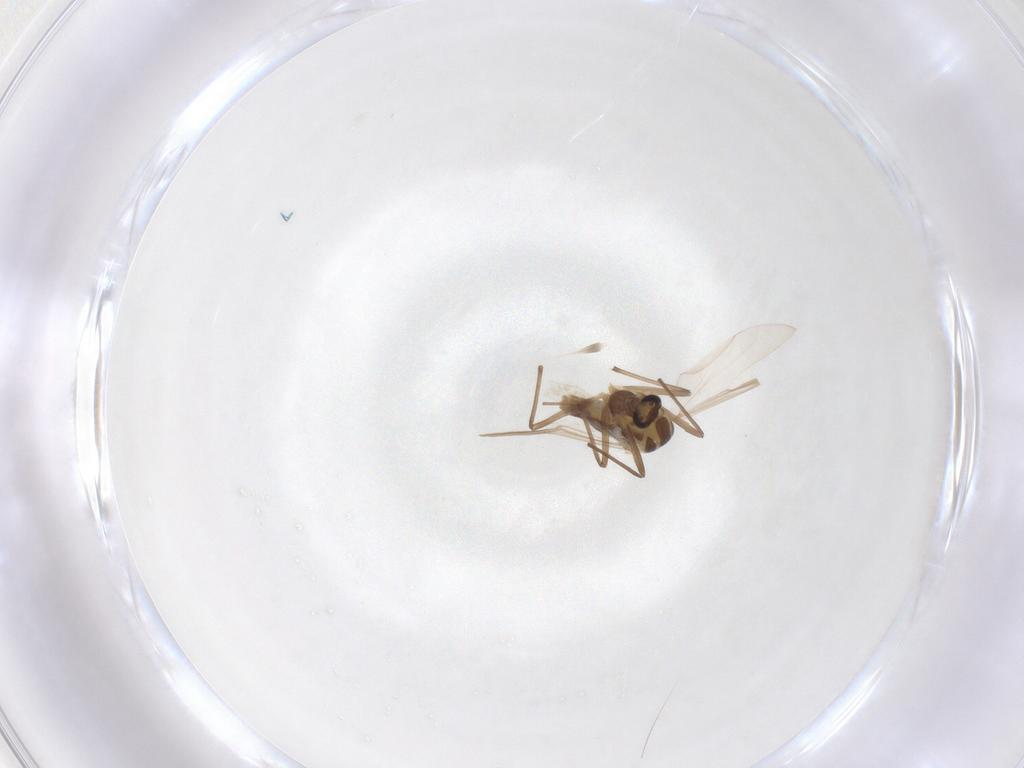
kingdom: Animalia
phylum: Arthropoda
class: Insecta
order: Diptera
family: Chironomidae
